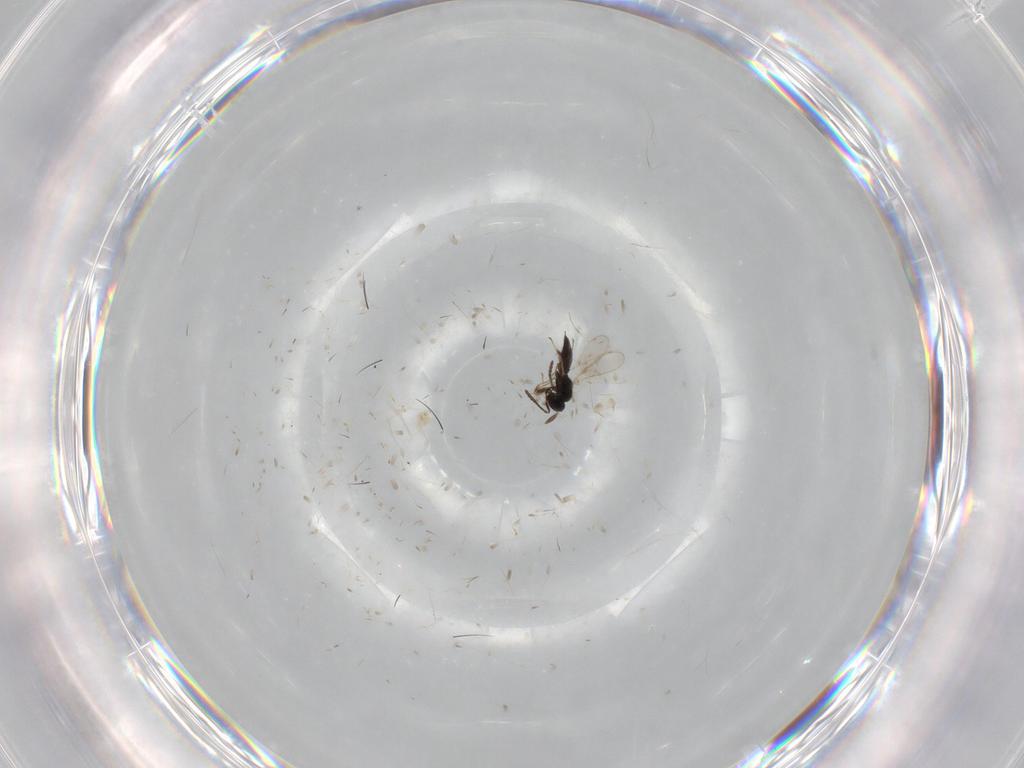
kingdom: Animalia
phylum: Arthropoda
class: Insecta
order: Hymenoptera
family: Scelionidae
